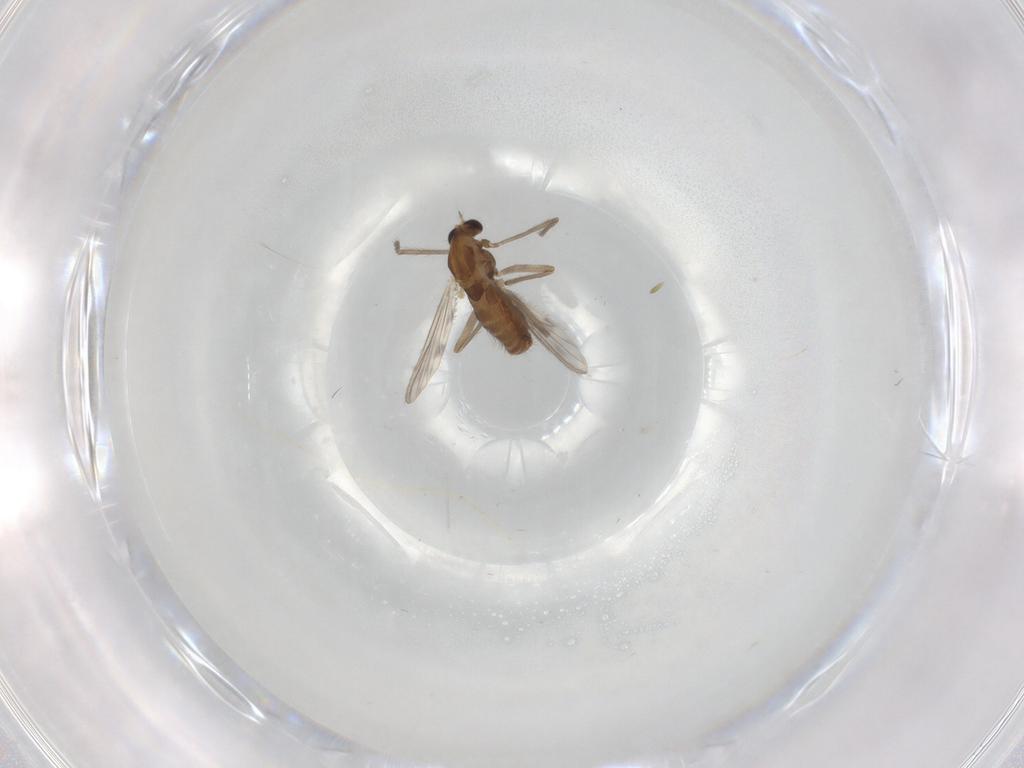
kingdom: Animalia
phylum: Arthropoda
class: Insecta
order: Diptera
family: Chironomidae
